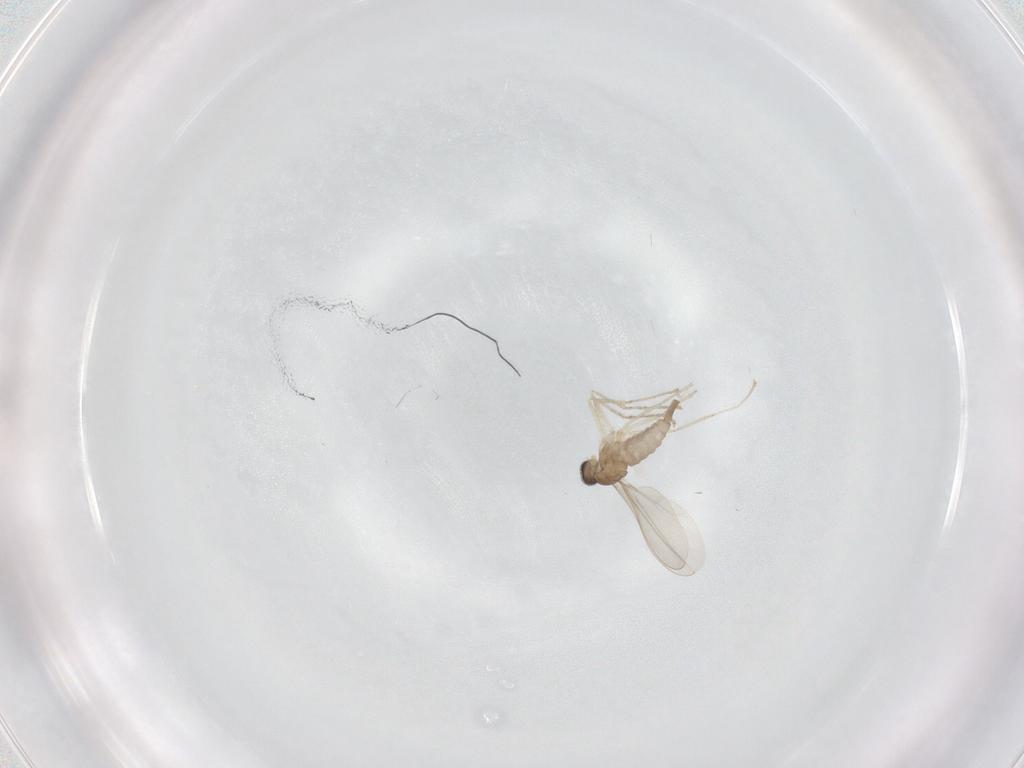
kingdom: Animalia
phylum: Arthropoda
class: Insecta
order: Diptera
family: Cecidomyiidae
